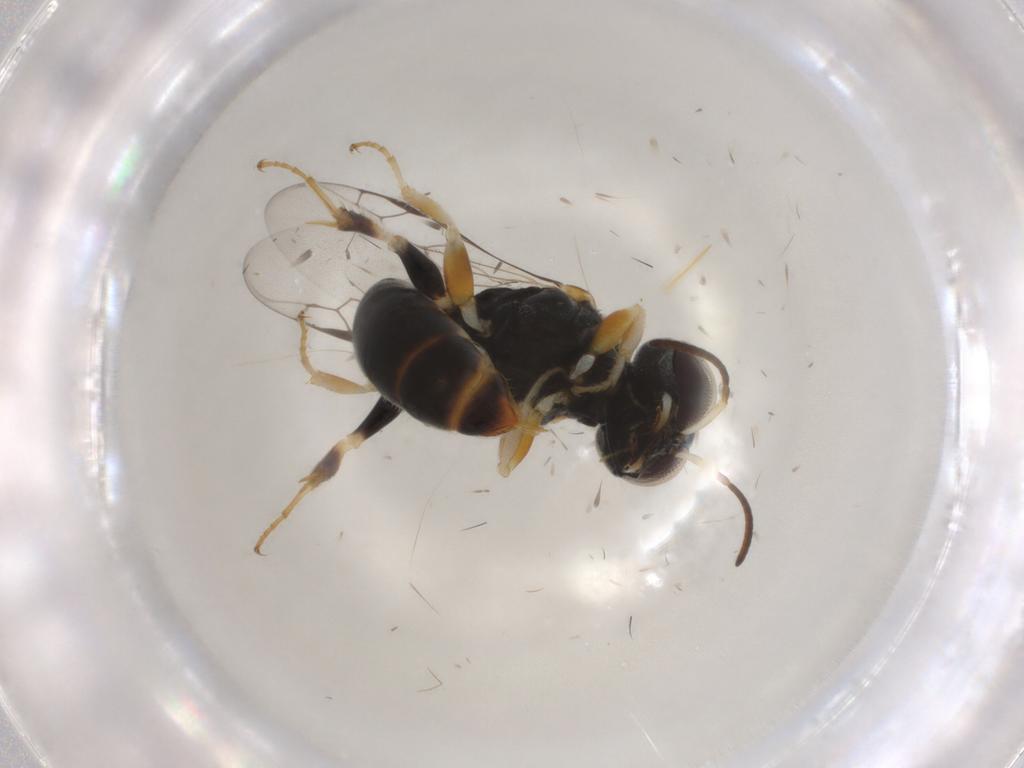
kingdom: Animalia
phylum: Arthropoda
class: Insecta
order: Hymenoptera
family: Crabronidae
